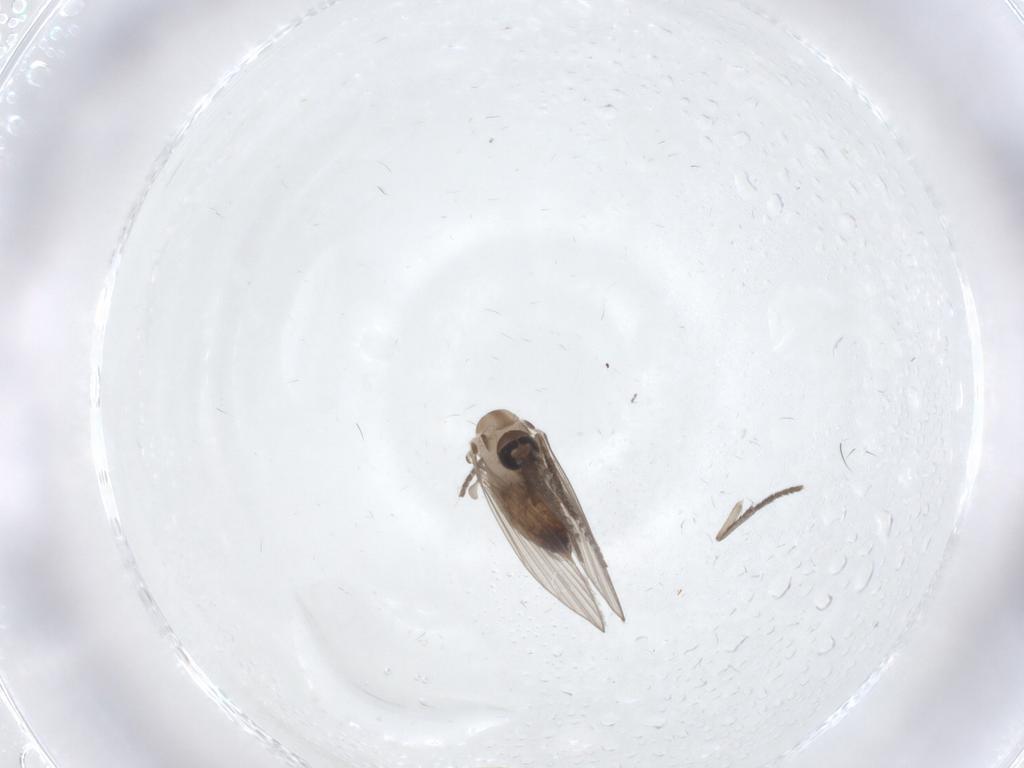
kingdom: Animalia
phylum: Arthropoda
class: Insecta
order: Diptera
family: Psychodidae
